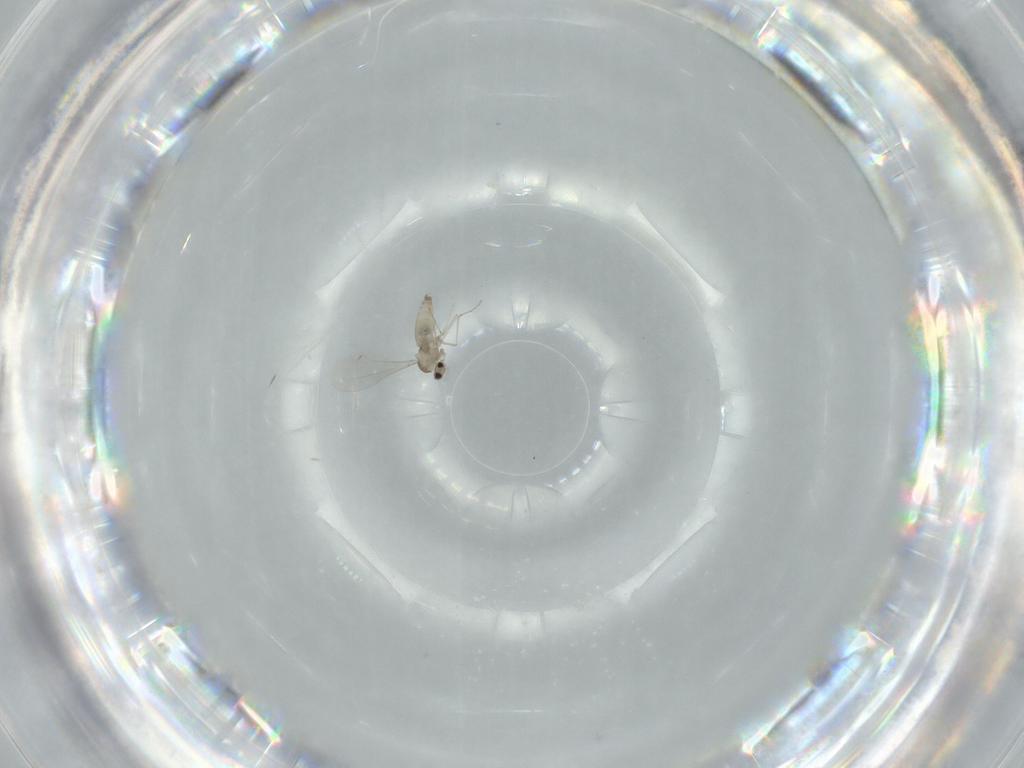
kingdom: Animalia
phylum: Arthropoda
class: Insecta
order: Diptera
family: Cecidomyiidae
